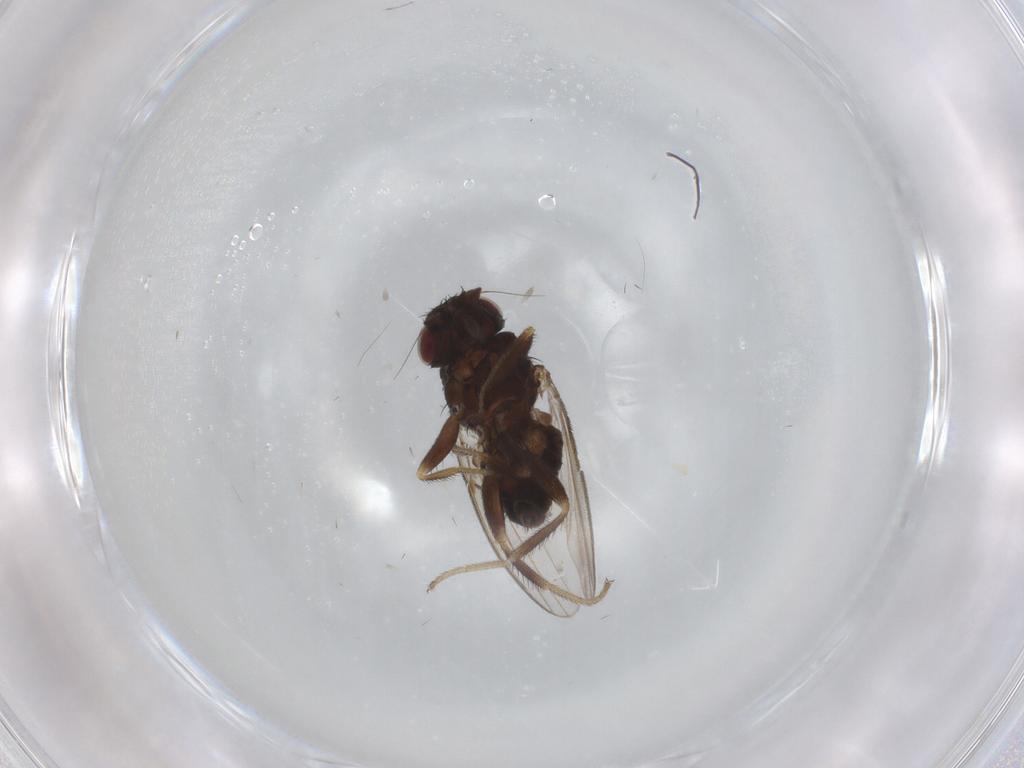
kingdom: Animalia
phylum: Arthropoda
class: Insecta
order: Diptera
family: Milichiidae
